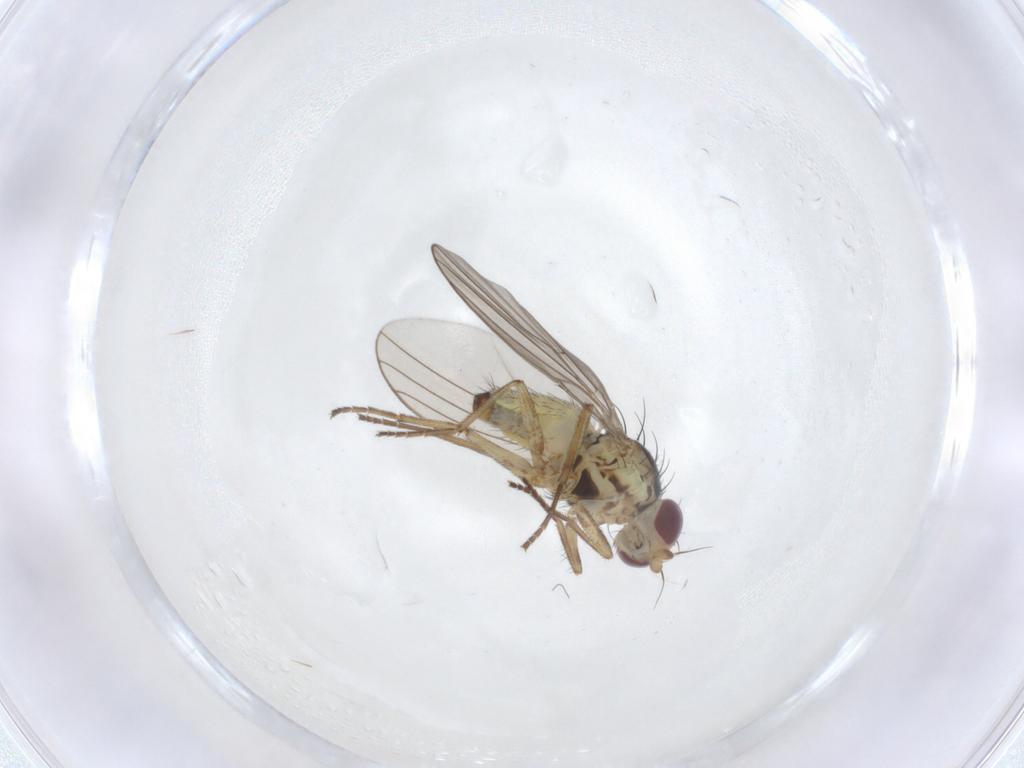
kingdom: Animalia
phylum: Arthropoda
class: Insecta
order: Diptera
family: Agromyzidae
